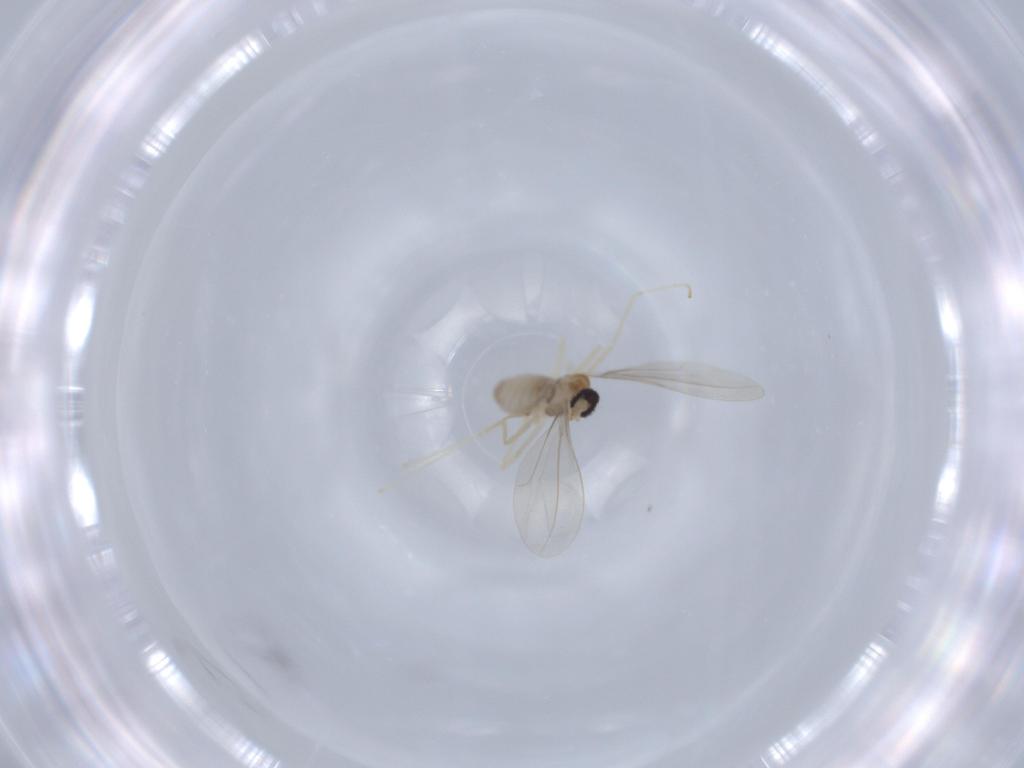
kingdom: Animalia
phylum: Arthropoda
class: Insecta
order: Diptera
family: Cecidomyiidae
